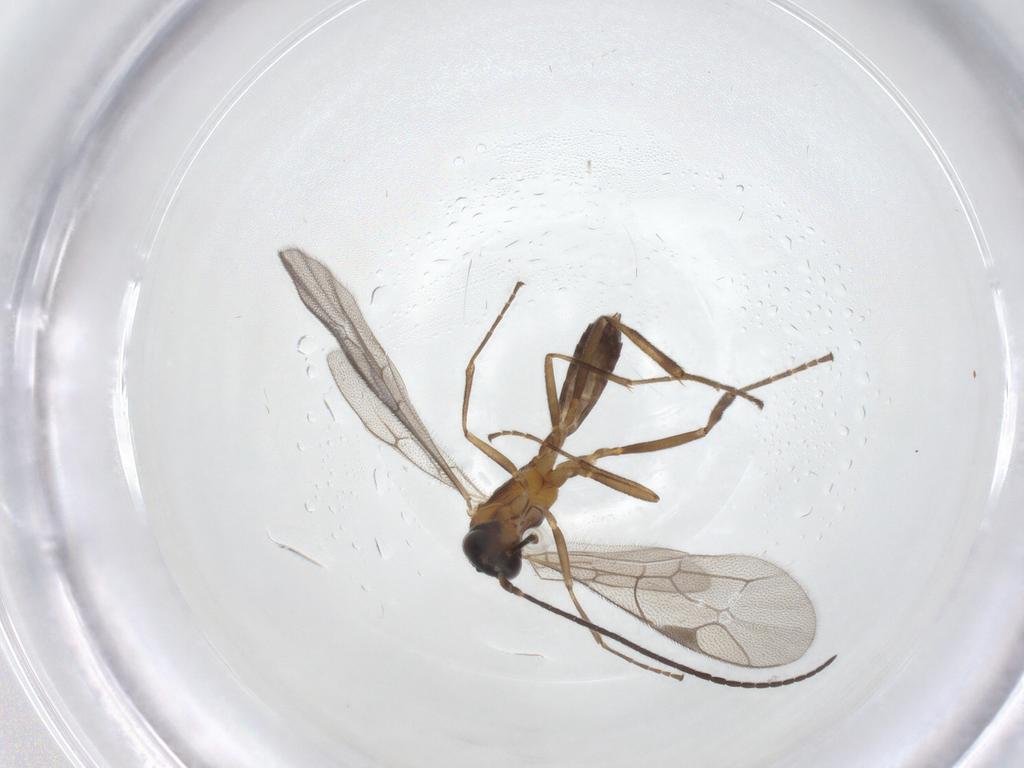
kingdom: Animalia
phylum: Arthropoda
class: Insecta
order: Hymenoptera
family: Ichneumonidae
